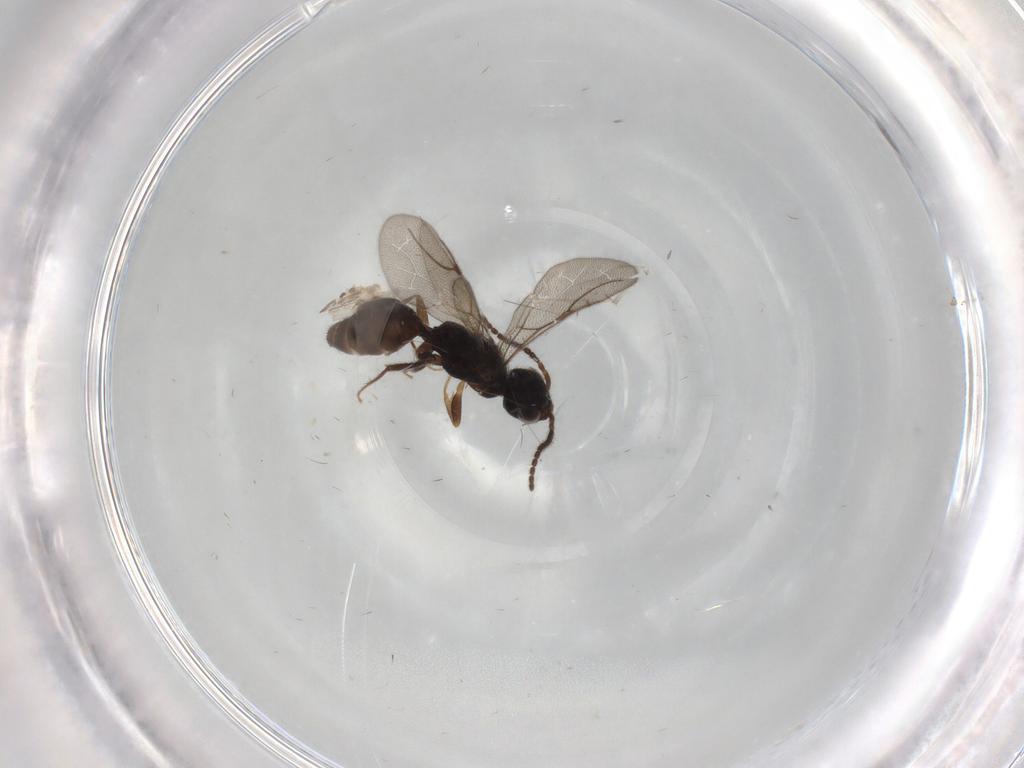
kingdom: Animalia
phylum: Arthropoda
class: Insecta
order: Hymenoptera
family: Bethylidae
